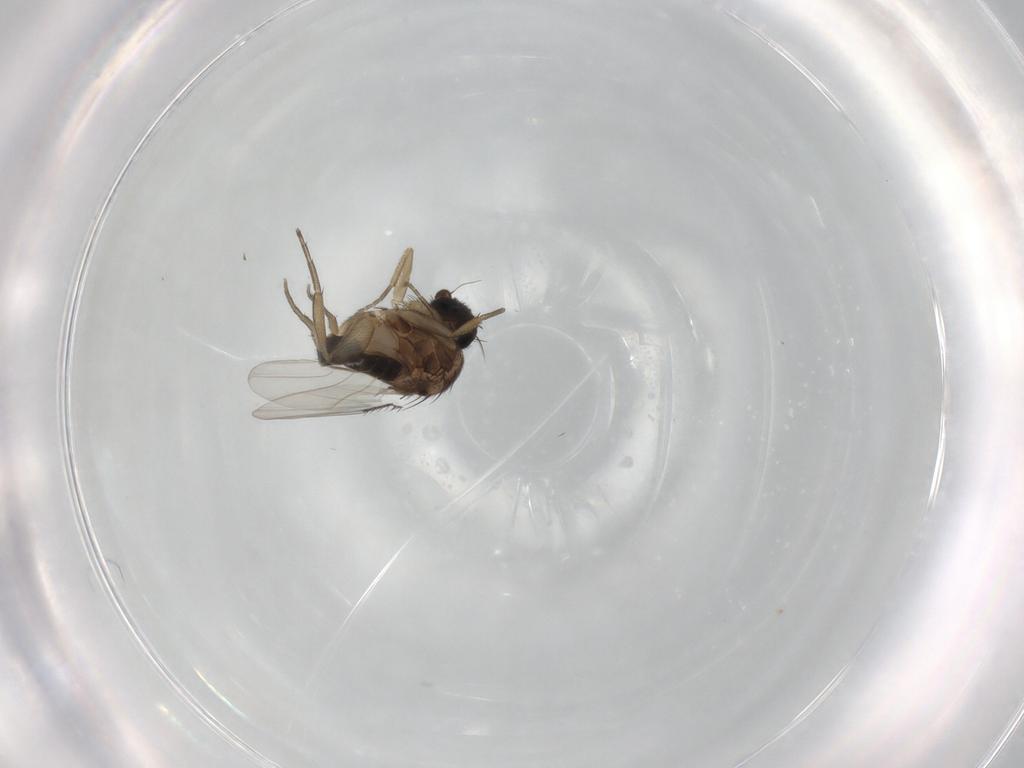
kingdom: Animalia
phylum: Arthropoda
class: Insecta
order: Diptera
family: Phoridae
